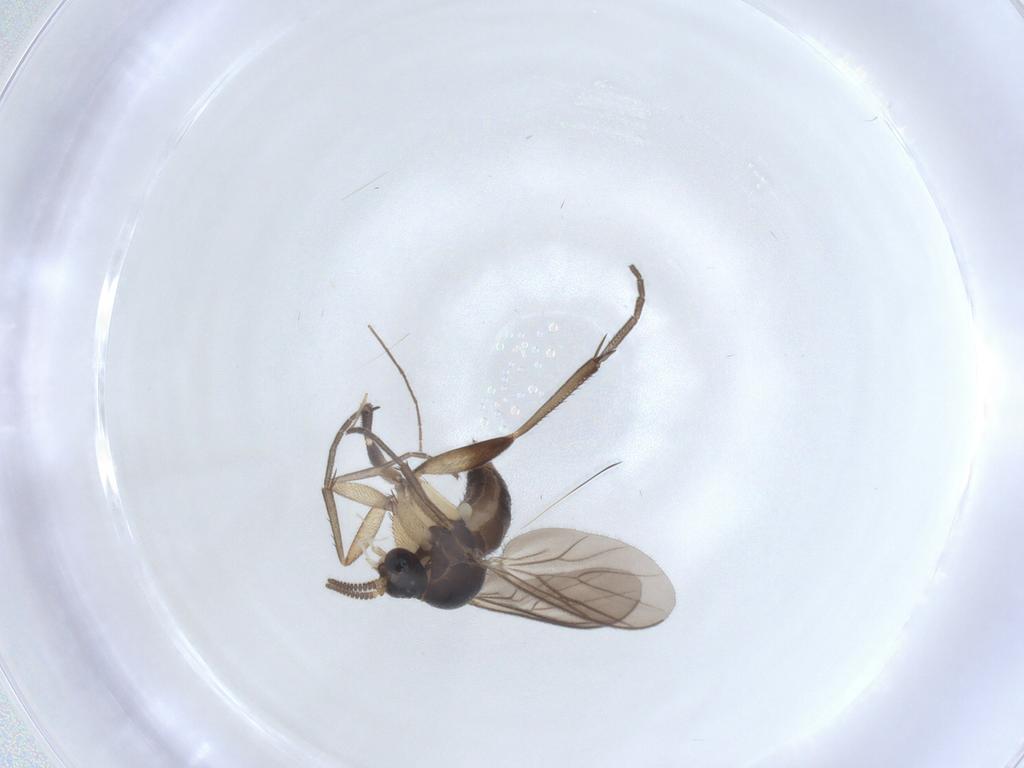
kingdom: Animalia
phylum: Arthropoda
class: Insecta
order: Diptera
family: Mycetophilidae
